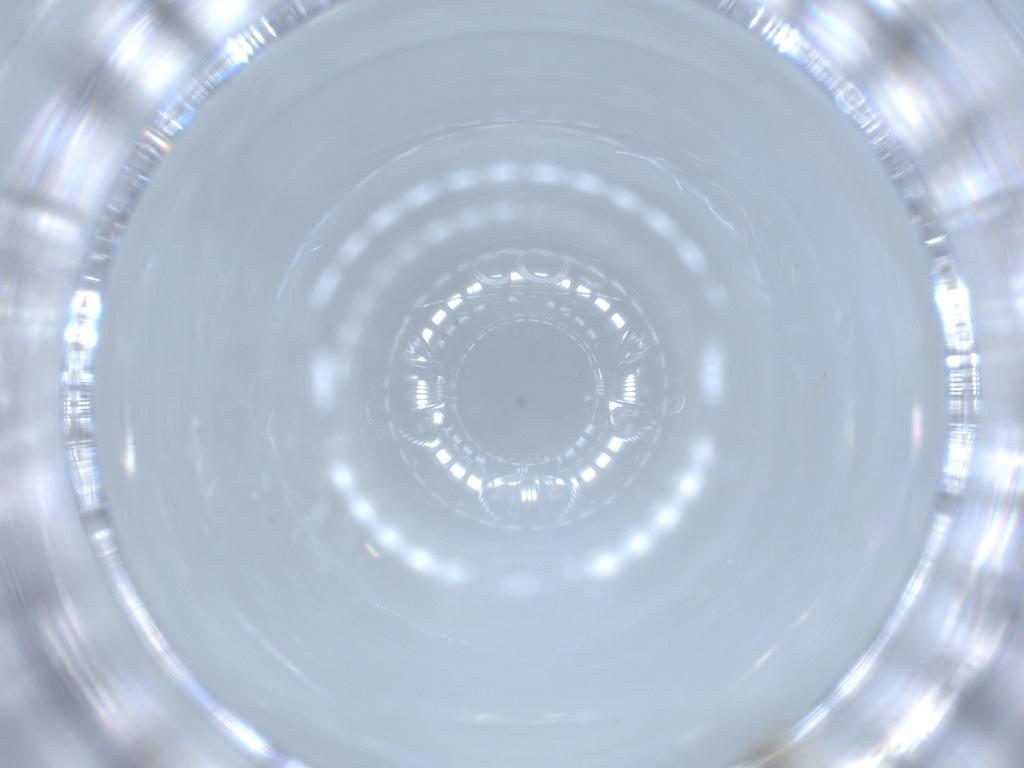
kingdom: Animalia
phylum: Arthropoda
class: Insecta
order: Hymenoptera
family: Mymaridae
